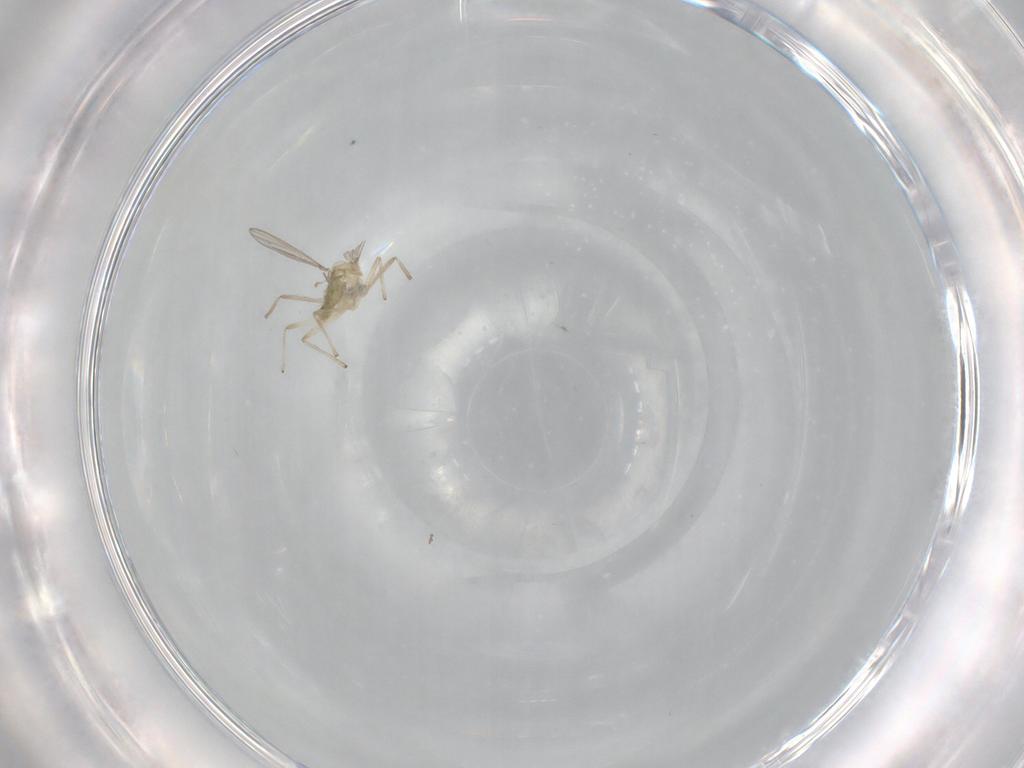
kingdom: Animalia
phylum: Arthropoda
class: Insecta
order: Diptera
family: Chironomidae
